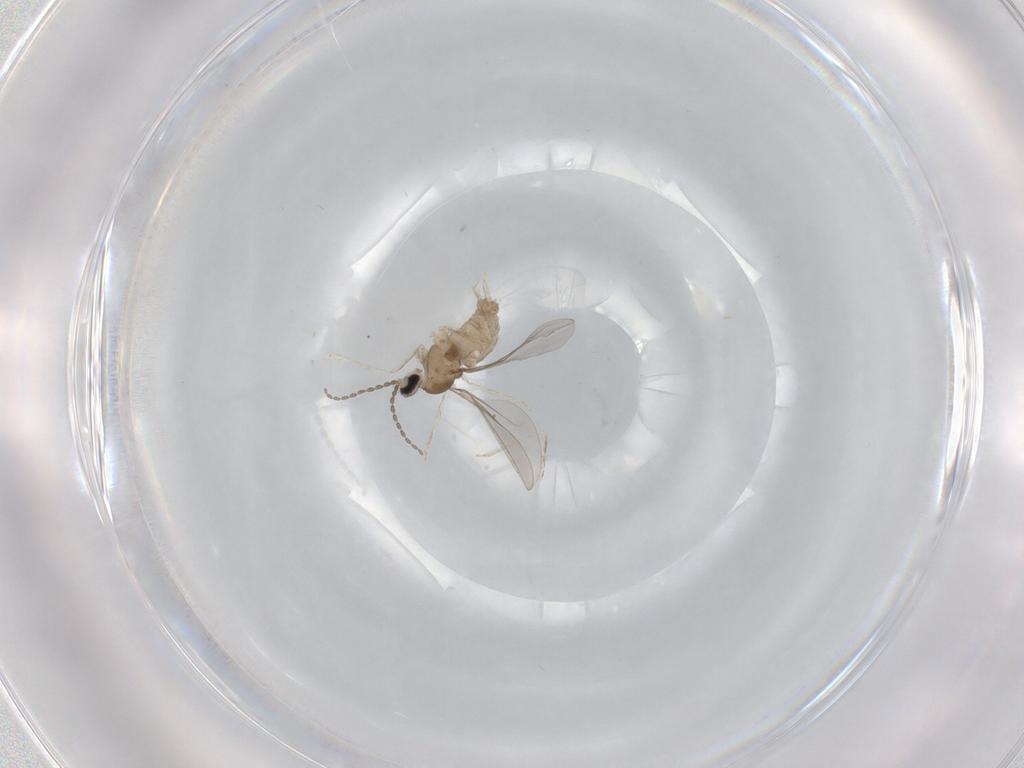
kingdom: Animalia
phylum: Arthropoda
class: Insecta
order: Diptera
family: Cecidomyiidae
